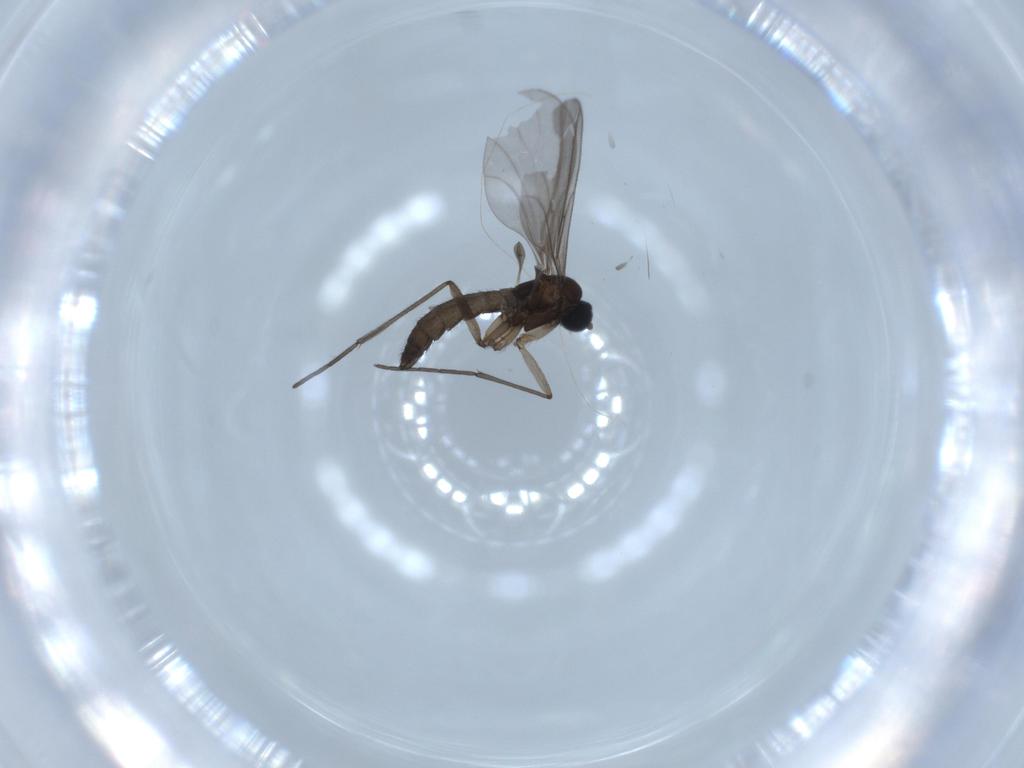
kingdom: Animalia
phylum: Arthropoda
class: Insecta
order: Diptera
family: Sciaridae
